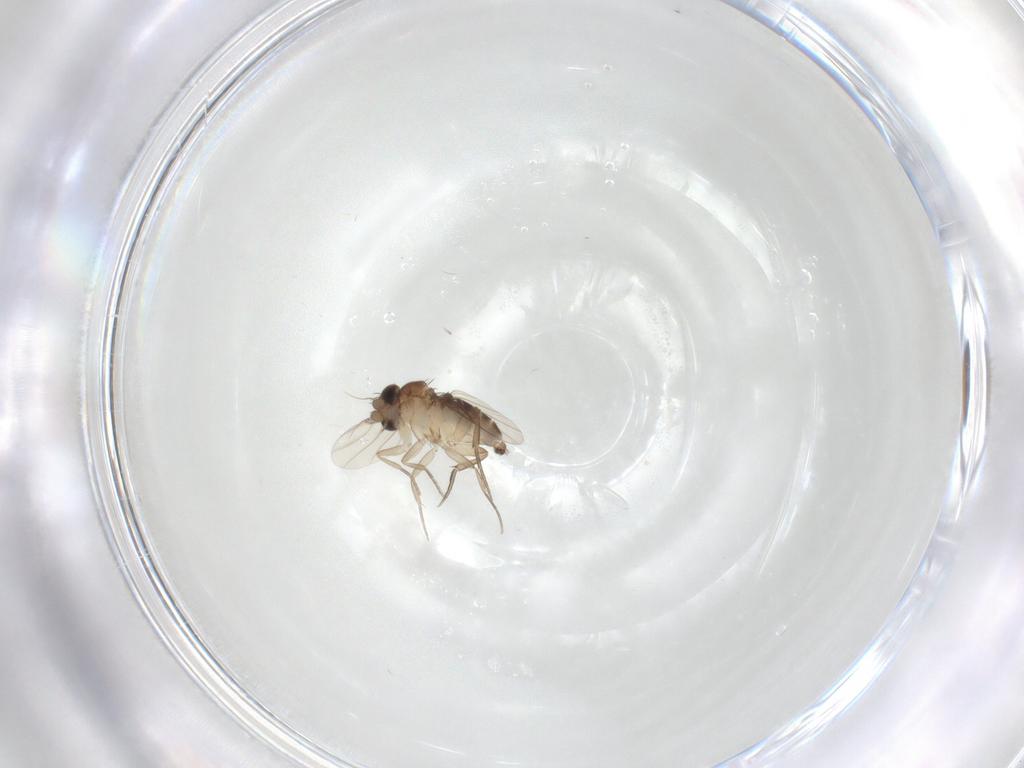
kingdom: Animalia
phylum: Arthropoda
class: Insecta
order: Diptera
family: Phoridae
